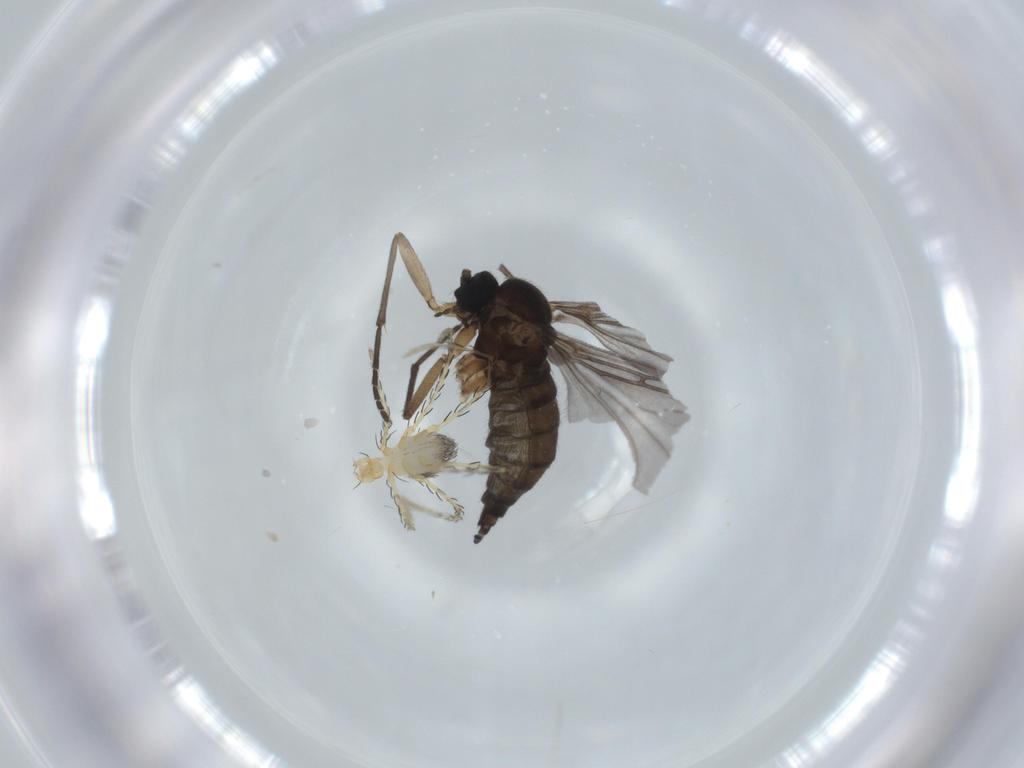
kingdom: Animalia
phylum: Arthropoda
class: Arachnida
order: Trombidiformes
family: Erythraeidae
